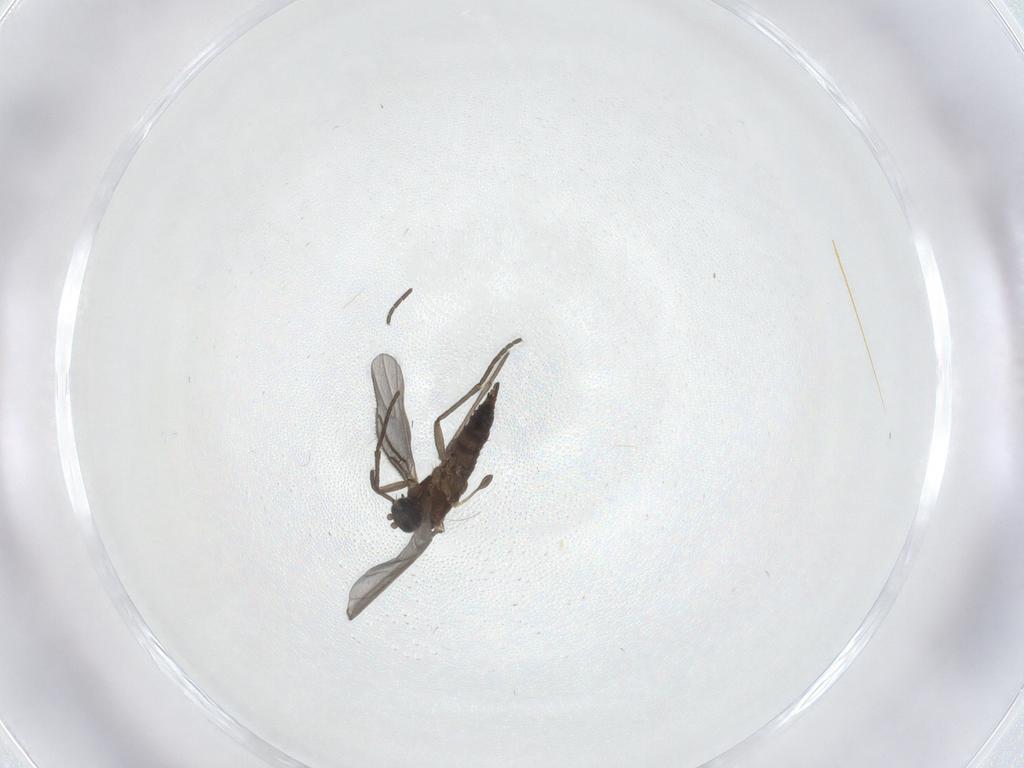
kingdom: Animalia
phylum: Arthropoda
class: Insecta
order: Diptera
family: Sciaridae
